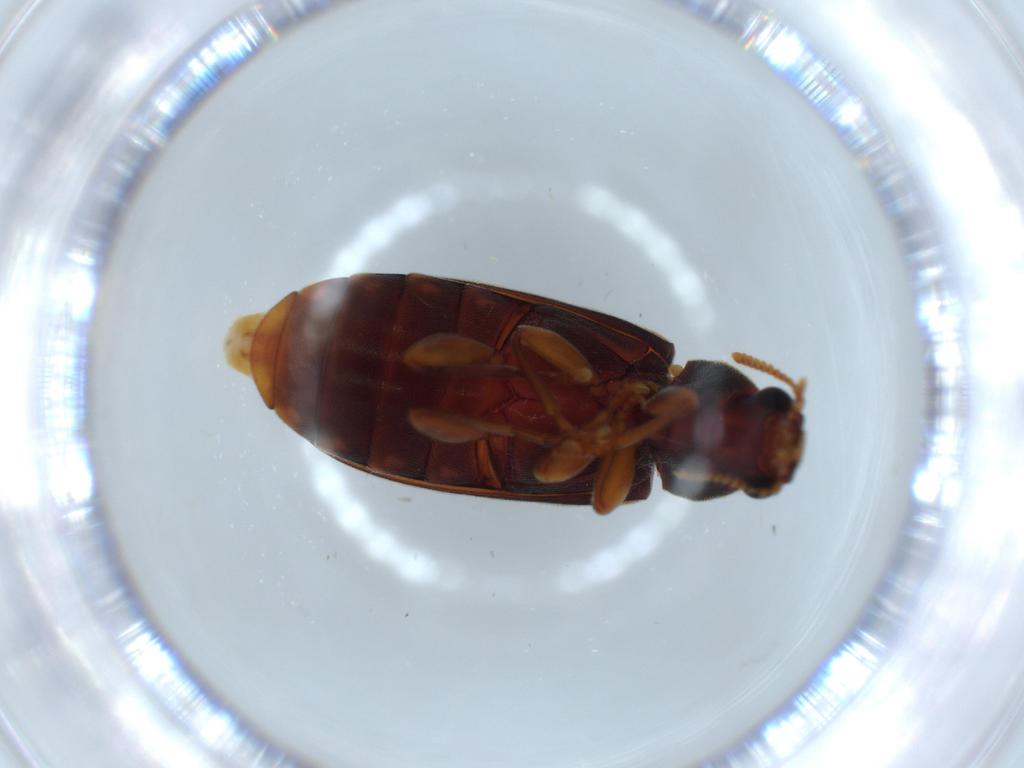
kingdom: Animalia
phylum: Arthropoda
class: Insecta
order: Coleoptera
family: Mycteridae
